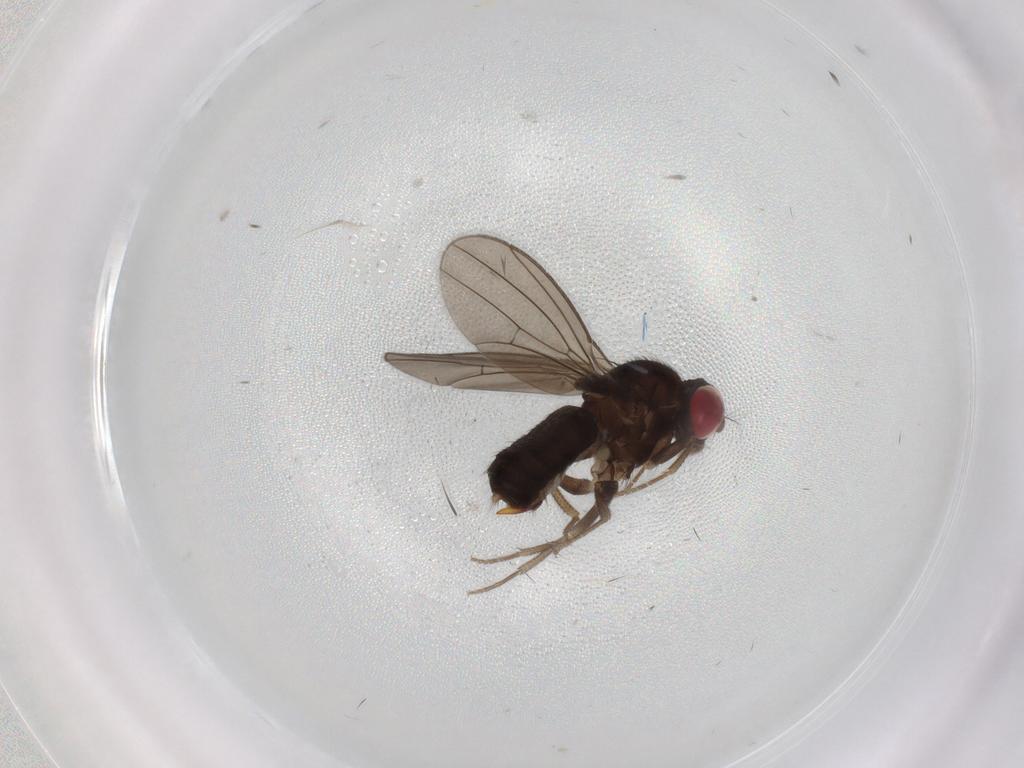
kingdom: Animalia
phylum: Arthropoda
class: Insecta
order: Diptera
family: Drosophilidae
